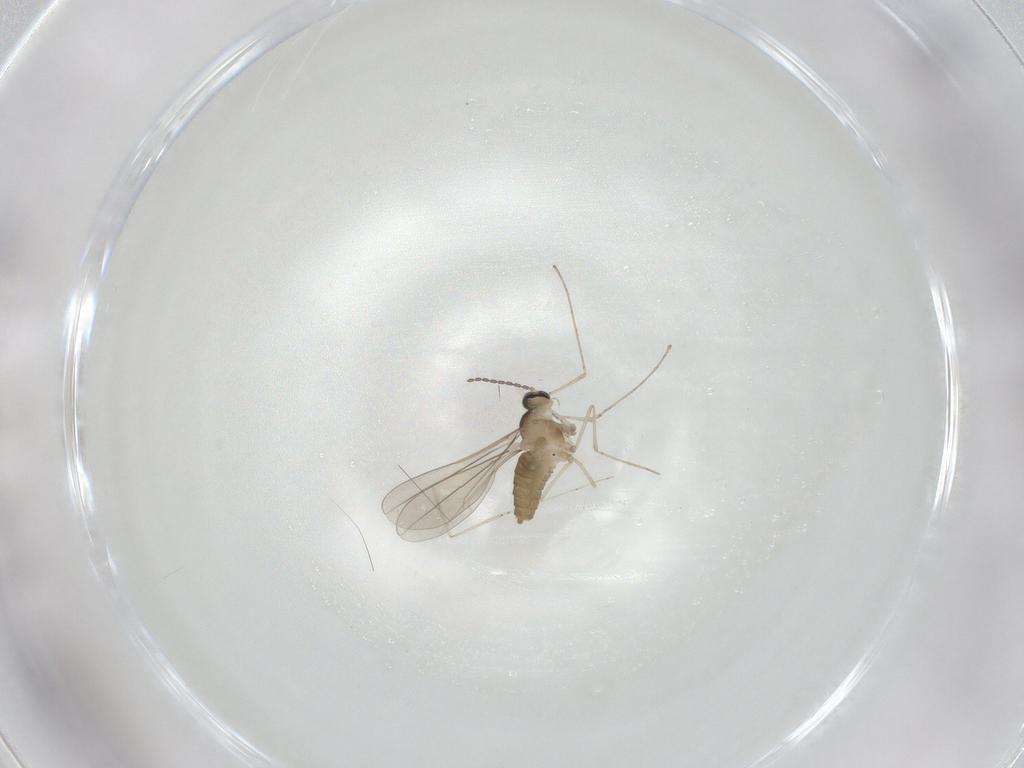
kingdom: Animalia
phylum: Arthropoda
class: Insecta
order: Diptera
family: Cecidomyiidae
